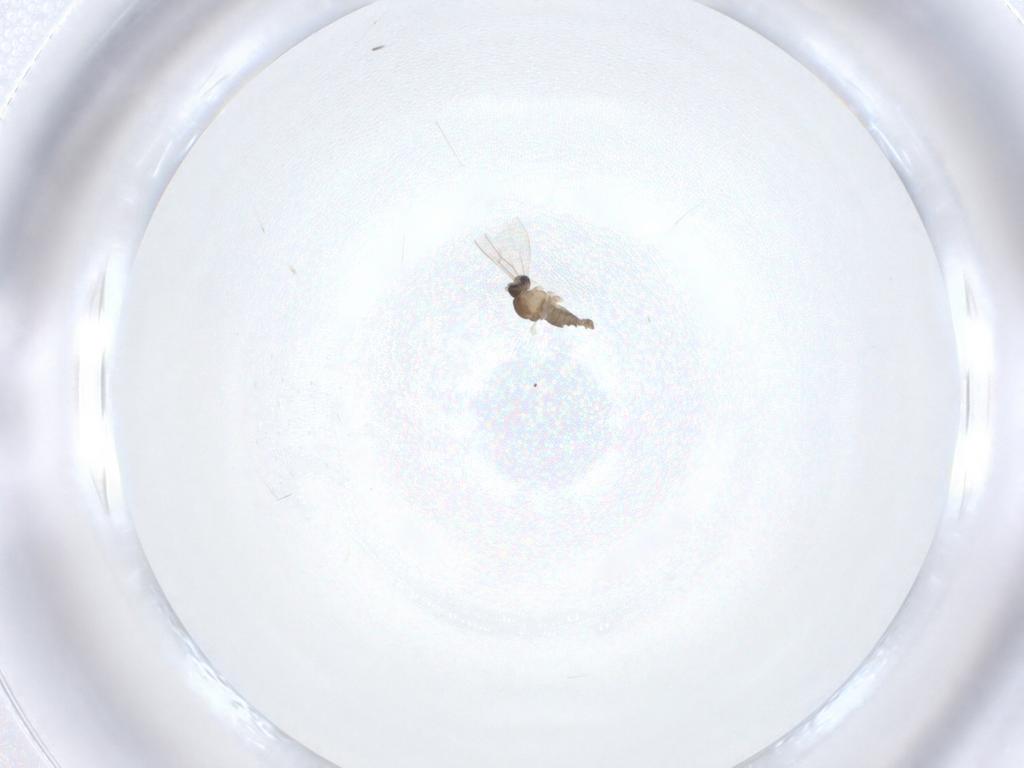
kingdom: Animalia
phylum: Arthropoda
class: Insecta
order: Diptera
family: Cecidomyiidae
